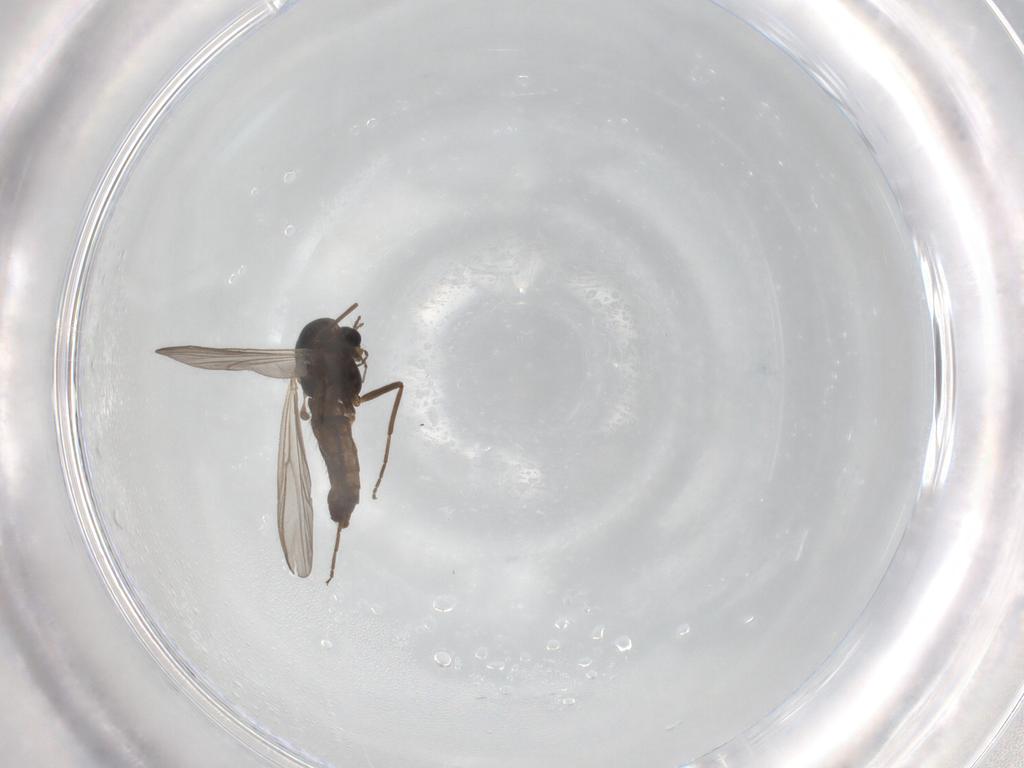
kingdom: Animalia
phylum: Arthropoda
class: Insecta
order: Diptera
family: Chironomidae
